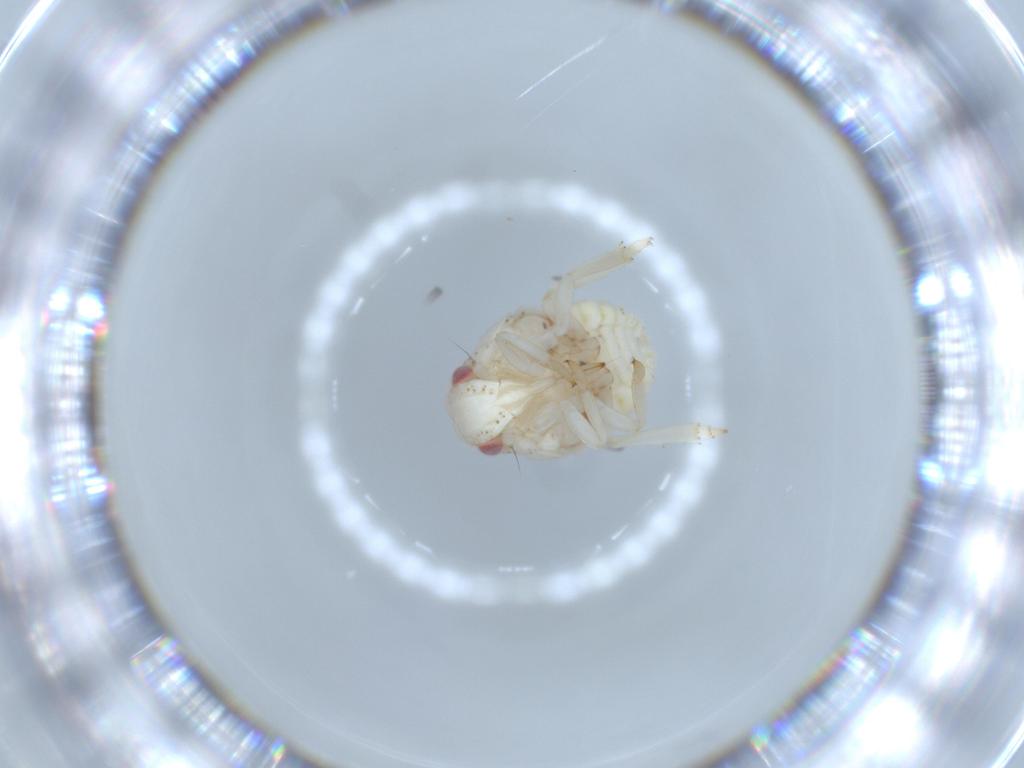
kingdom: Animalia
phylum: Arthropoda
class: Insecta
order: Hemiptera
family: Acanaloniidae
